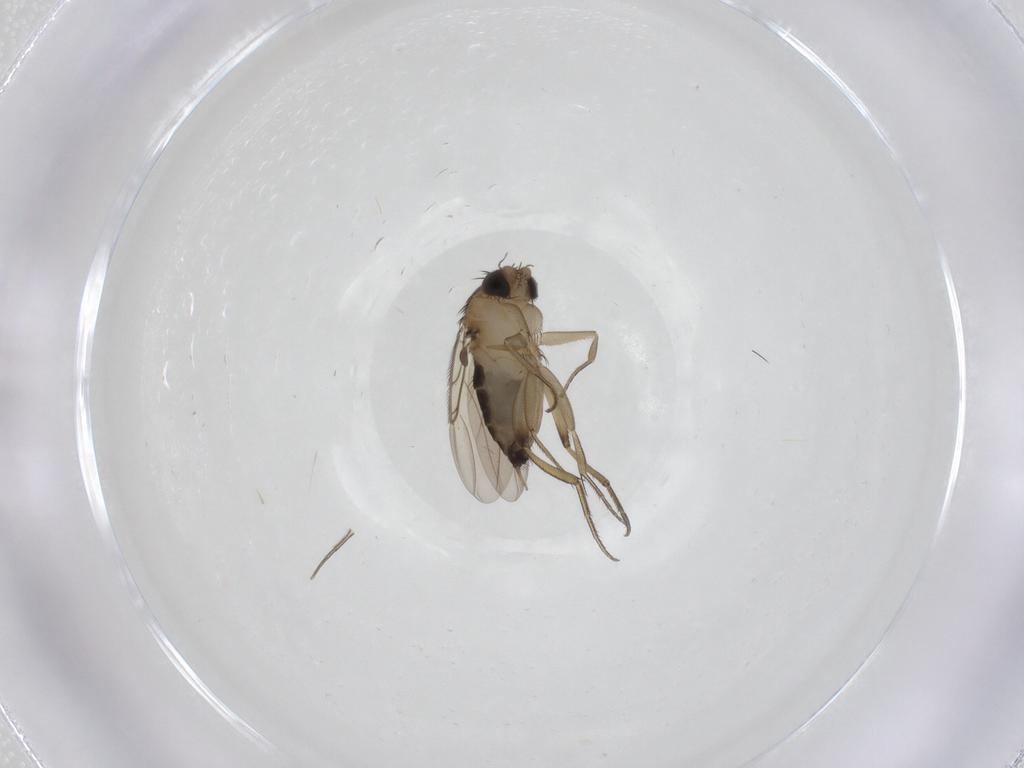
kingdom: Animalia
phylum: Arthropoda
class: Insecta
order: Diptera
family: Phoridae
